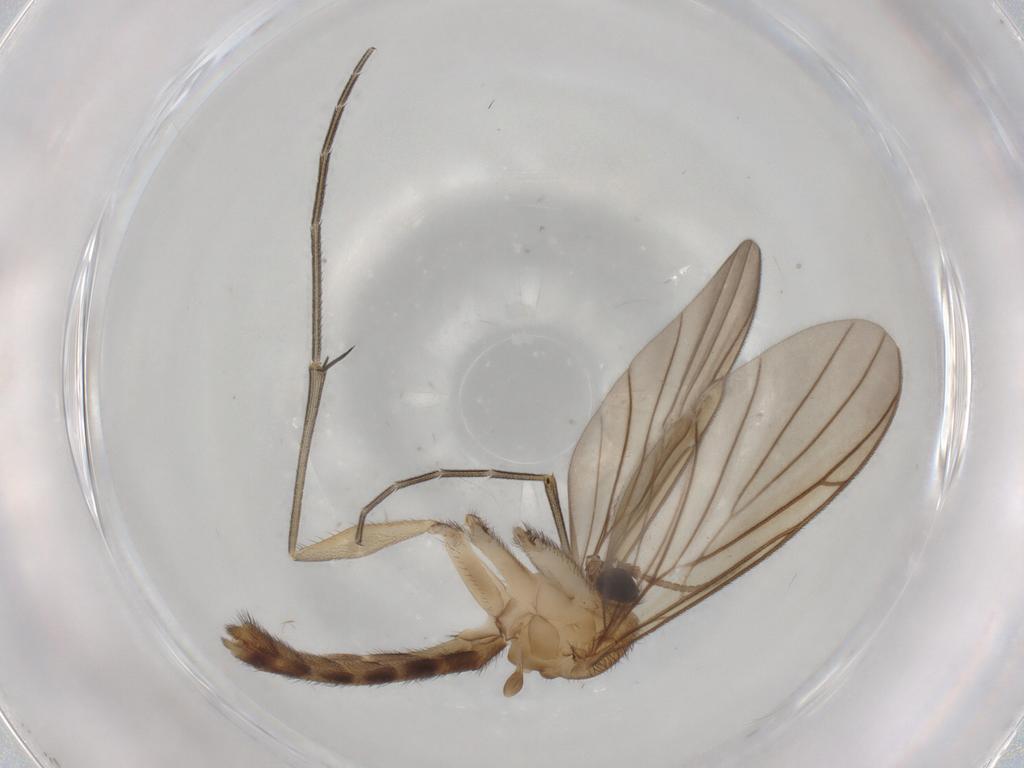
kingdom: Animalia
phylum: Arthropoda
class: Insecta
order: Diptera
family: Keroplatidae
